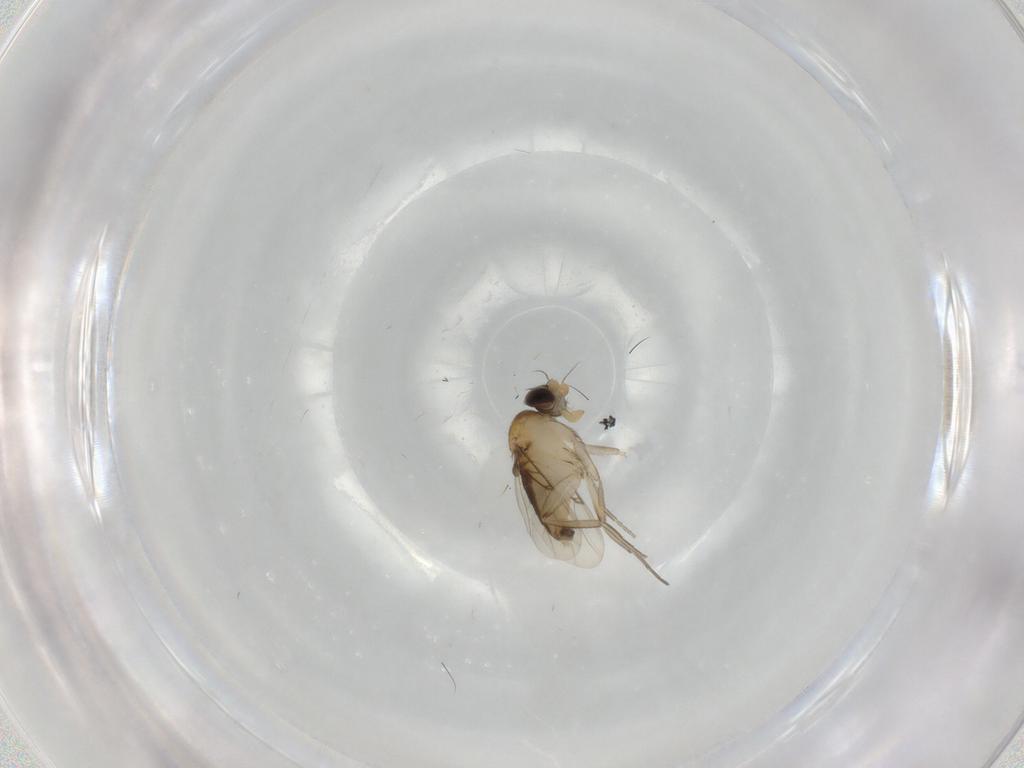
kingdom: Animalia
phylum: Arthropoda
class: Insecta
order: Diptera
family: Phoridae
